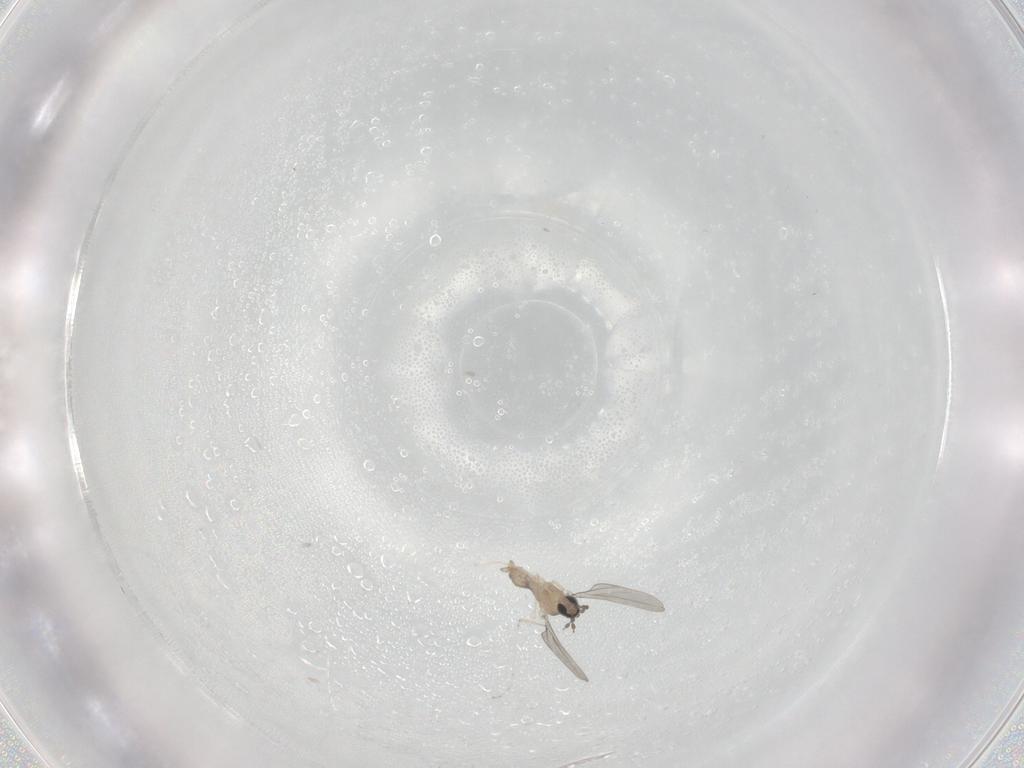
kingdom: Animalia
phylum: Arthropoda
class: Insecta
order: Diptera
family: Cecidomyiidae
